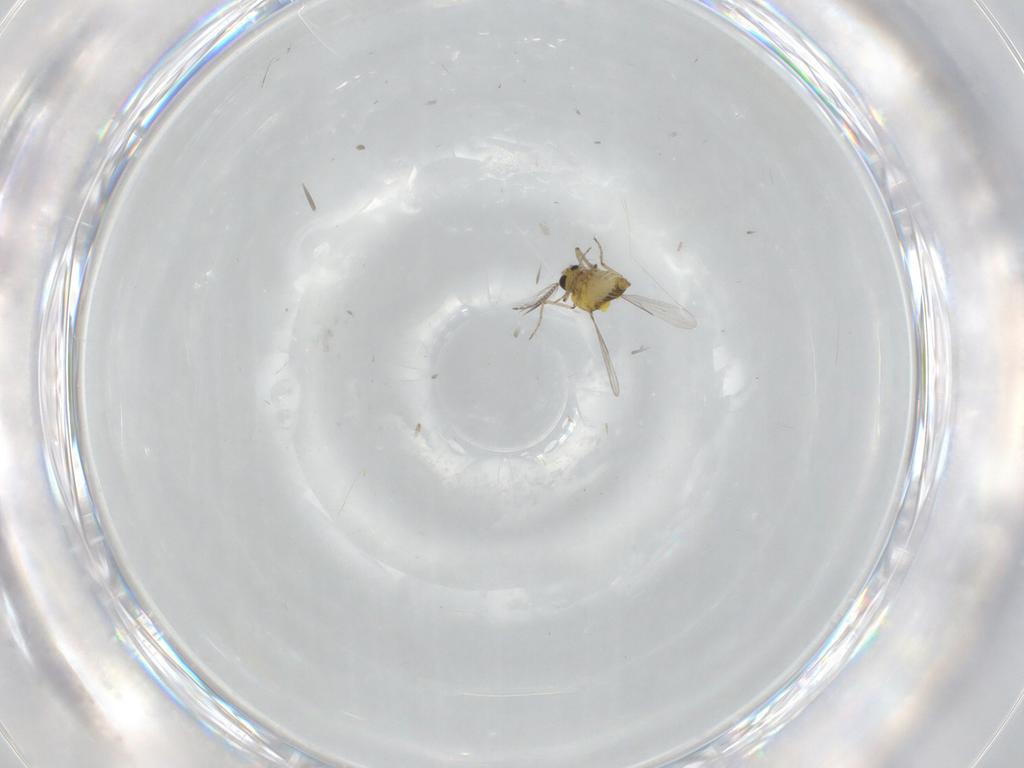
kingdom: Animalia
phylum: Arthropoda
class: Insecta
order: Diptera
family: Ceratopogonidae
